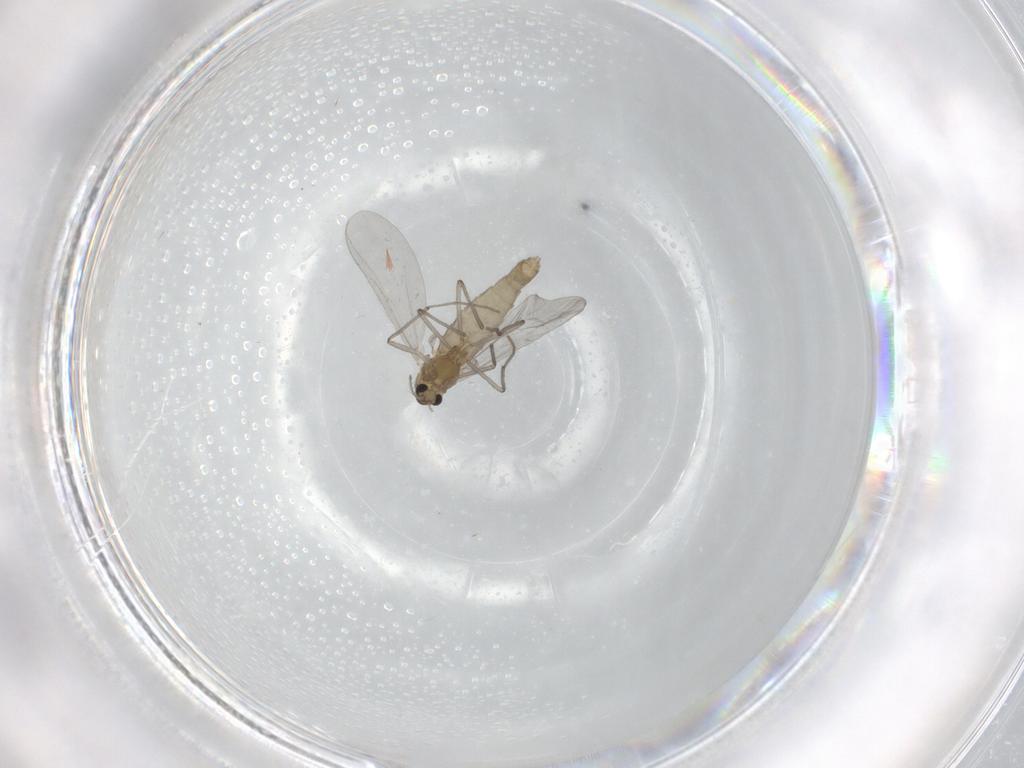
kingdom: Animalia
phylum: Arthropoda
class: Insecta
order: Diptera
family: Chironomidae
